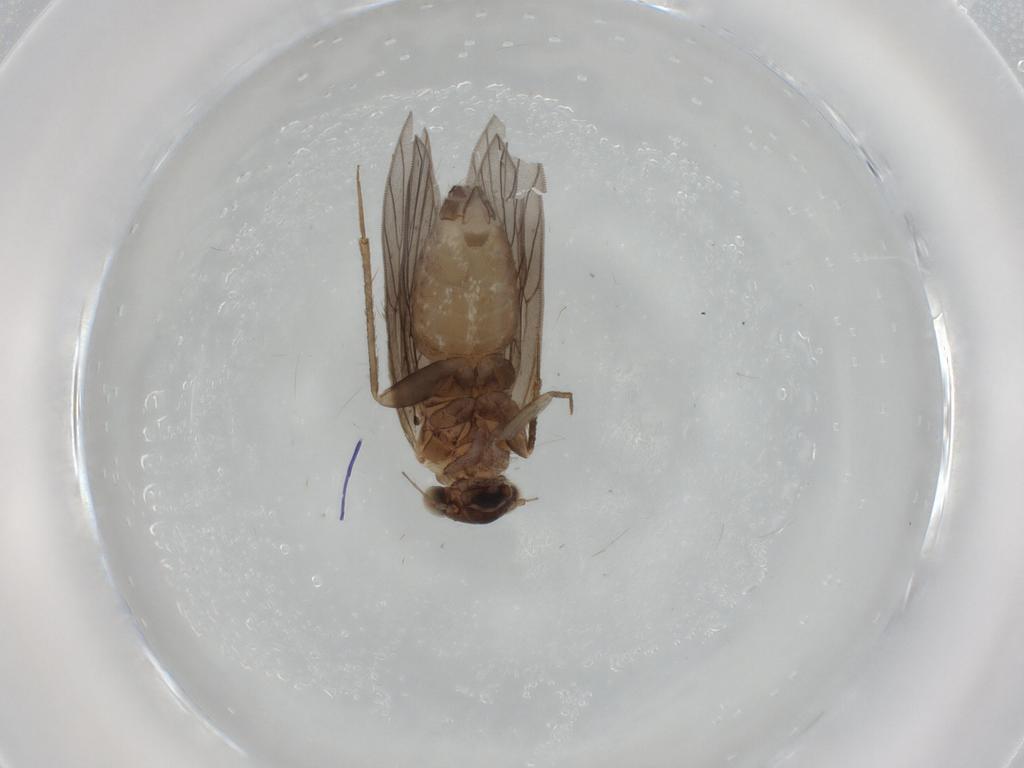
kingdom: Animalia
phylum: Arthropoda
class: Insecta
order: Psocodea
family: Lepidopsocidae
